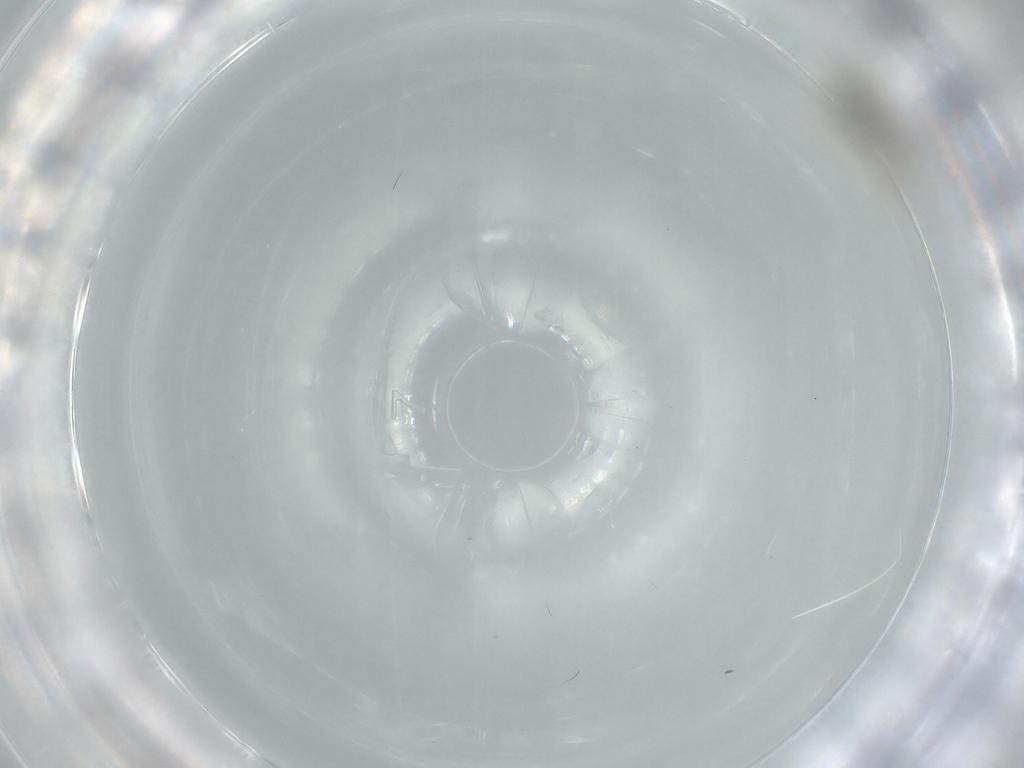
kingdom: Animalia
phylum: Arthropoda
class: Insecta
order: Diptera
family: Cecidomyiidae
